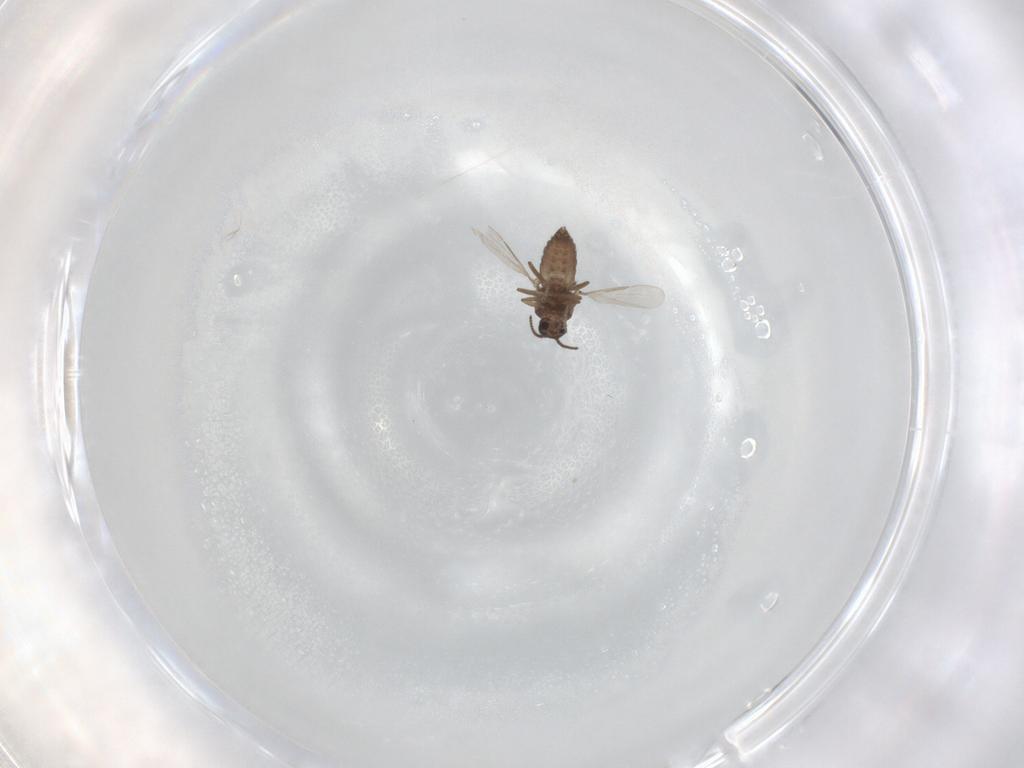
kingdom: Animalia
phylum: Arthropoda
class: Insecta
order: Diptera
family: Ceratopogonidae
